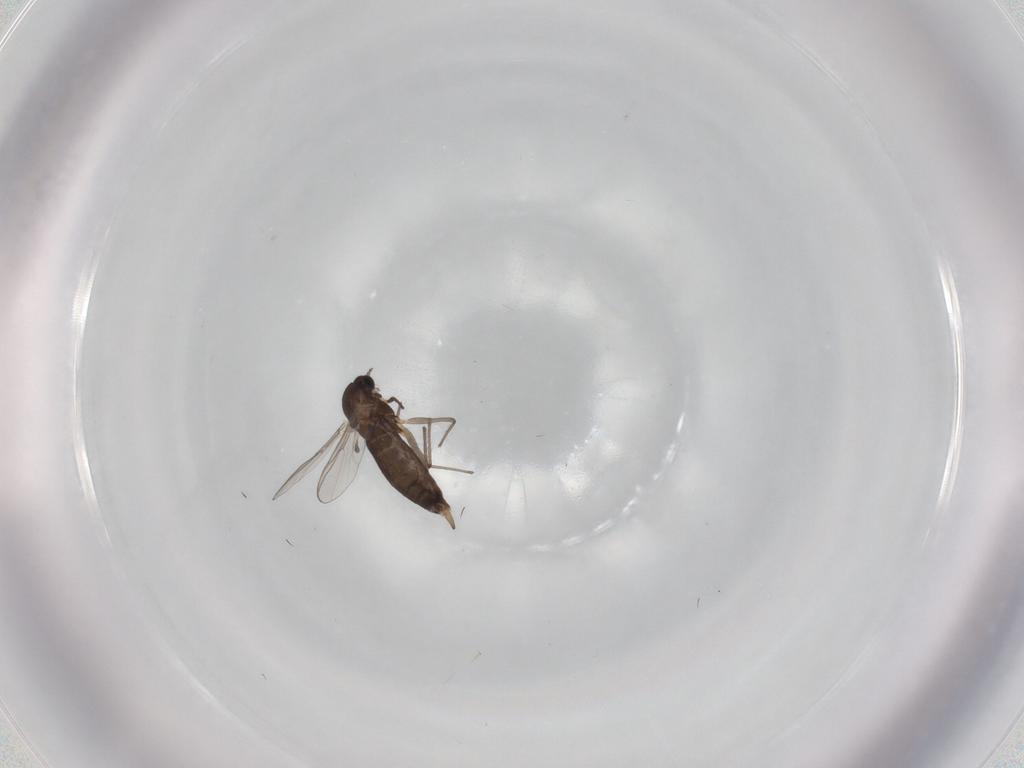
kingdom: Animalia
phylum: Arthropoda
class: Insecta
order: Diptera
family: Chironomidae
